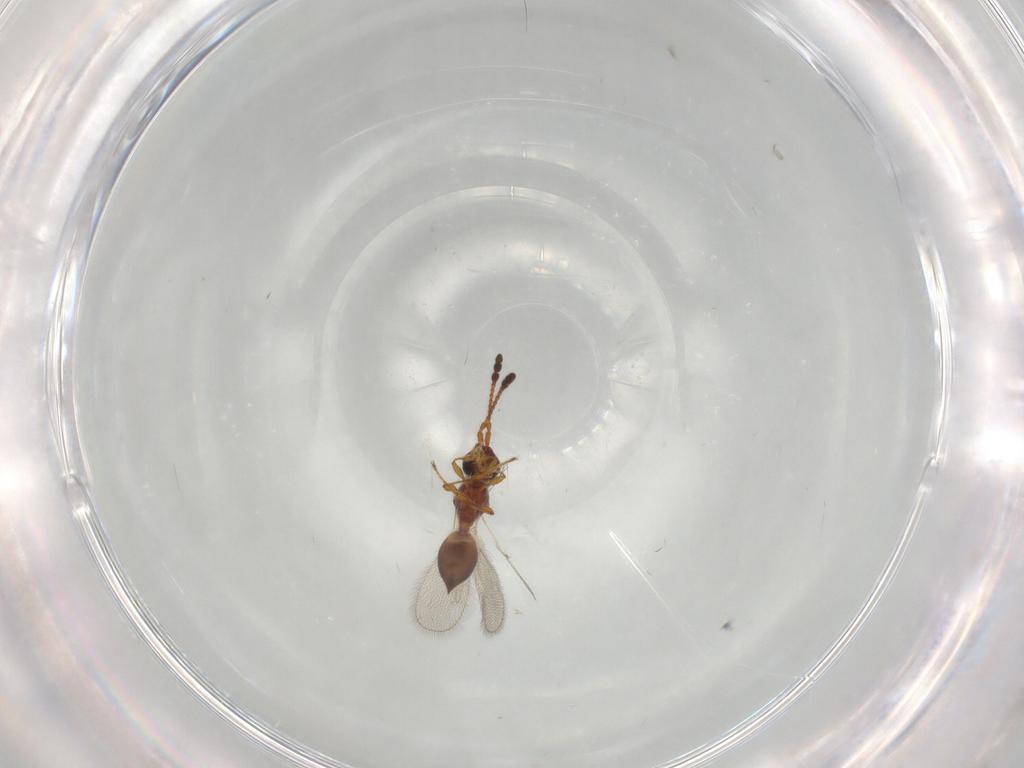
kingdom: Animalia
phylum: Arthropoda
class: Insecta
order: Hymenoptera
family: Diapriidae
